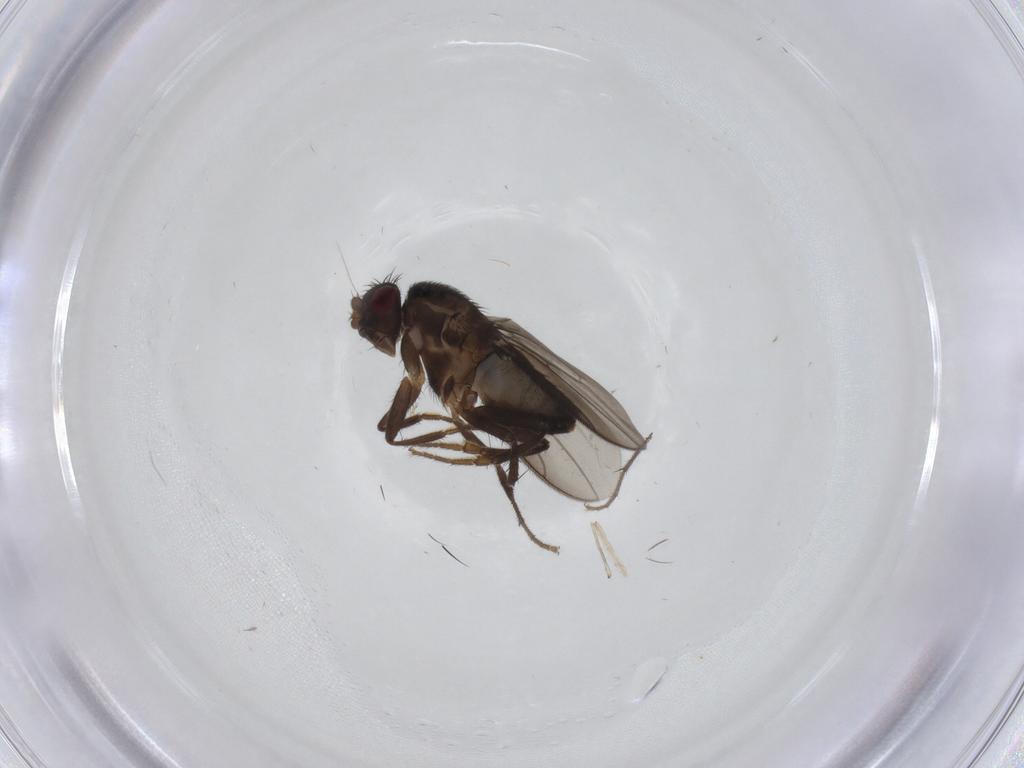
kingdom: Animalia
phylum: Arthropoda
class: Insecta
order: Diptera
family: Sphaeroceridae
